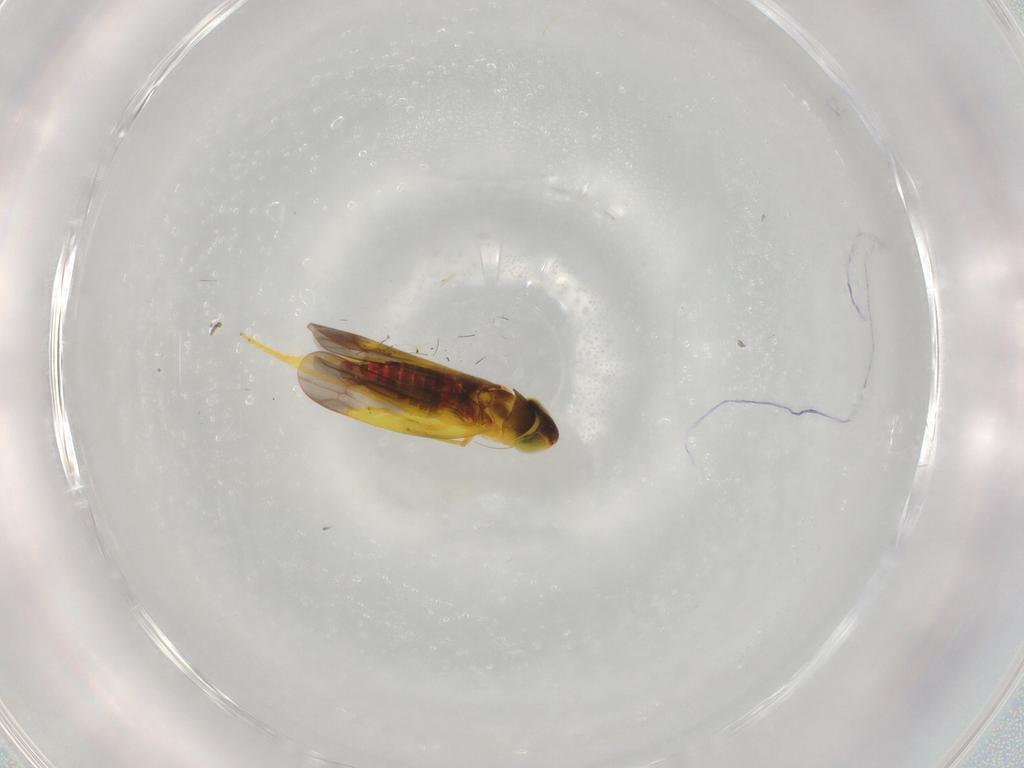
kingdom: Animalia
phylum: Arthropoda
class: Insecta
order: Hemiptera
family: Cicadellidae
